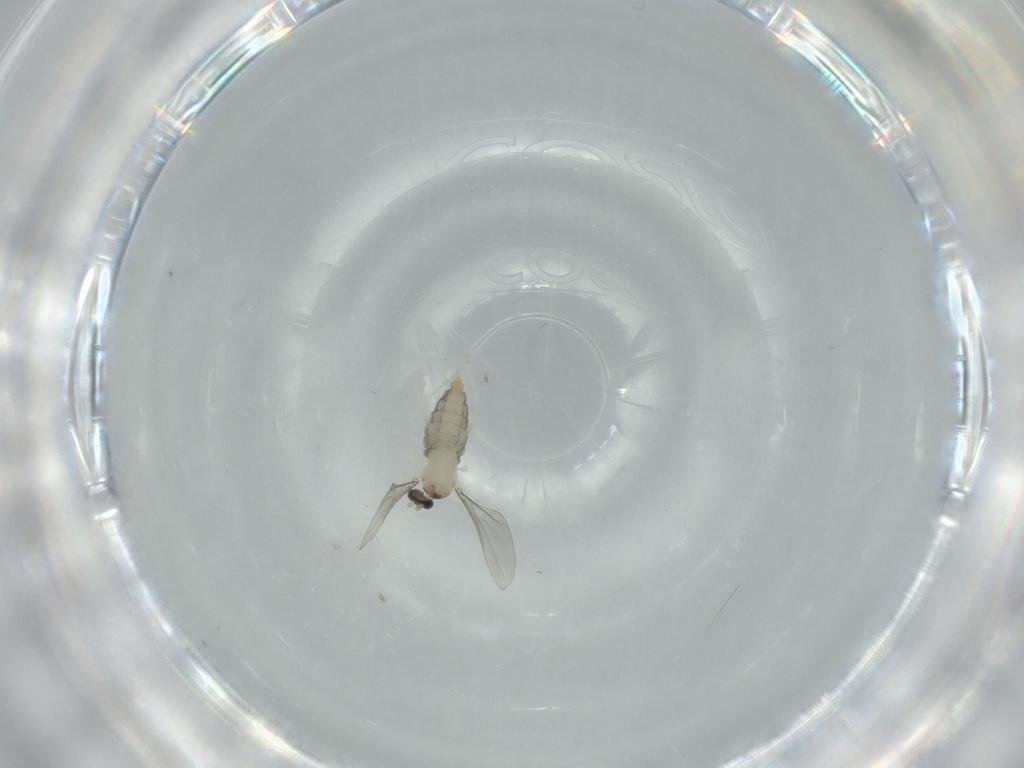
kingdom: Animalia
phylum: Arthropoda
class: Insecta
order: Diptera
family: Milichiidae
